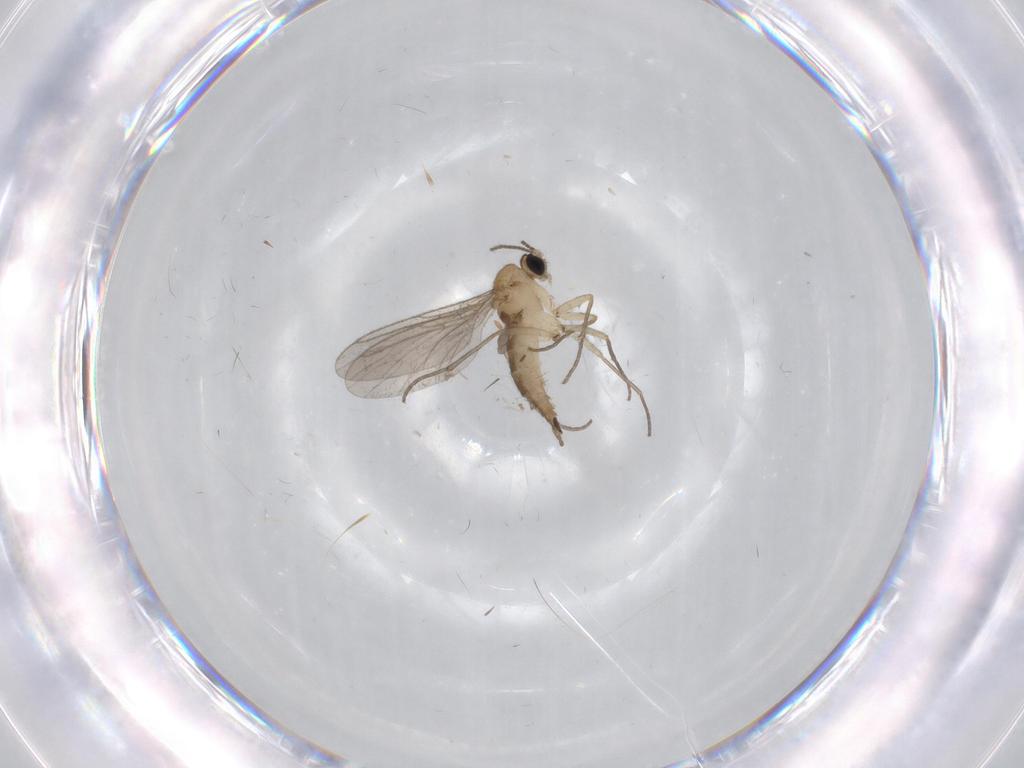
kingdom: Animalia
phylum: Arthropoda
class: Insecta
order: Diptera
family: Sciaridae
